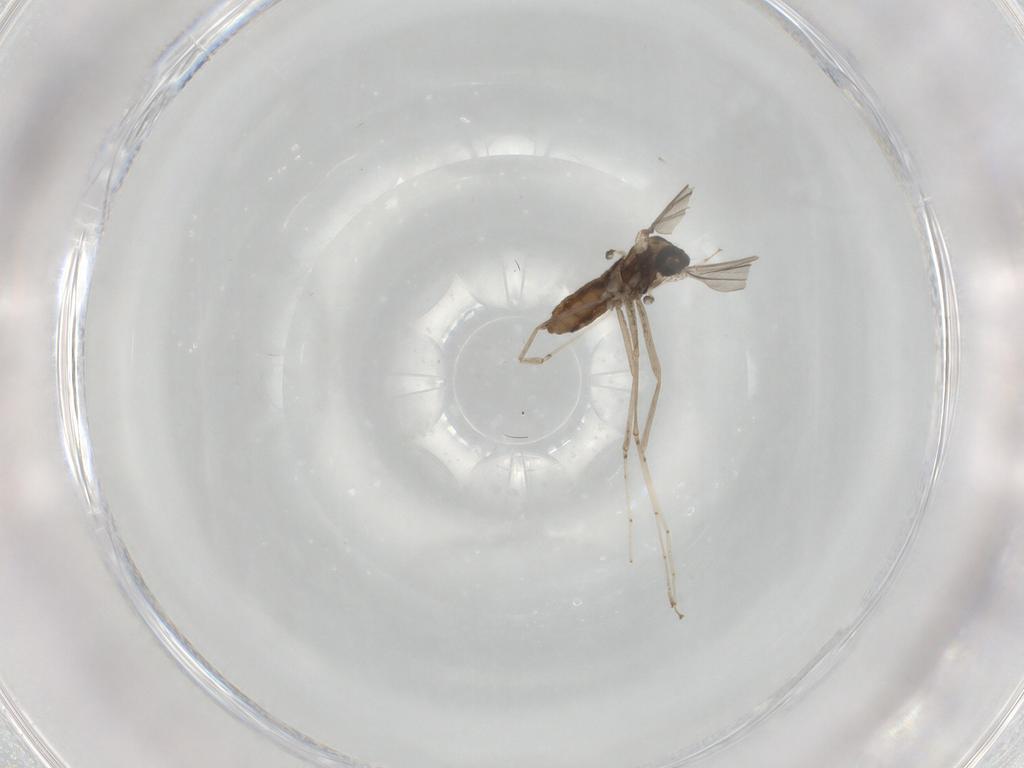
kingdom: Animalia
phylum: Arthropoda
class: Insecta
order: Diptera
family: Cecidomyiidae
